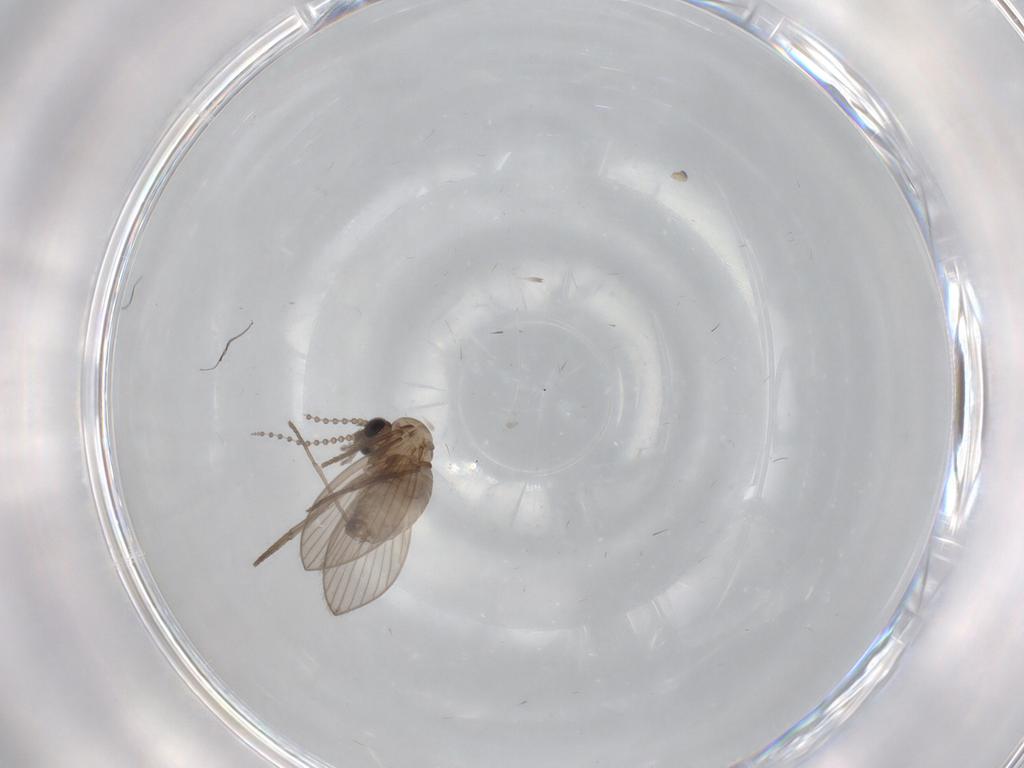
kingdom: Animalia
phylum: Arthropoda
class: Insecta
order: Diptera
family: Psychodidae
